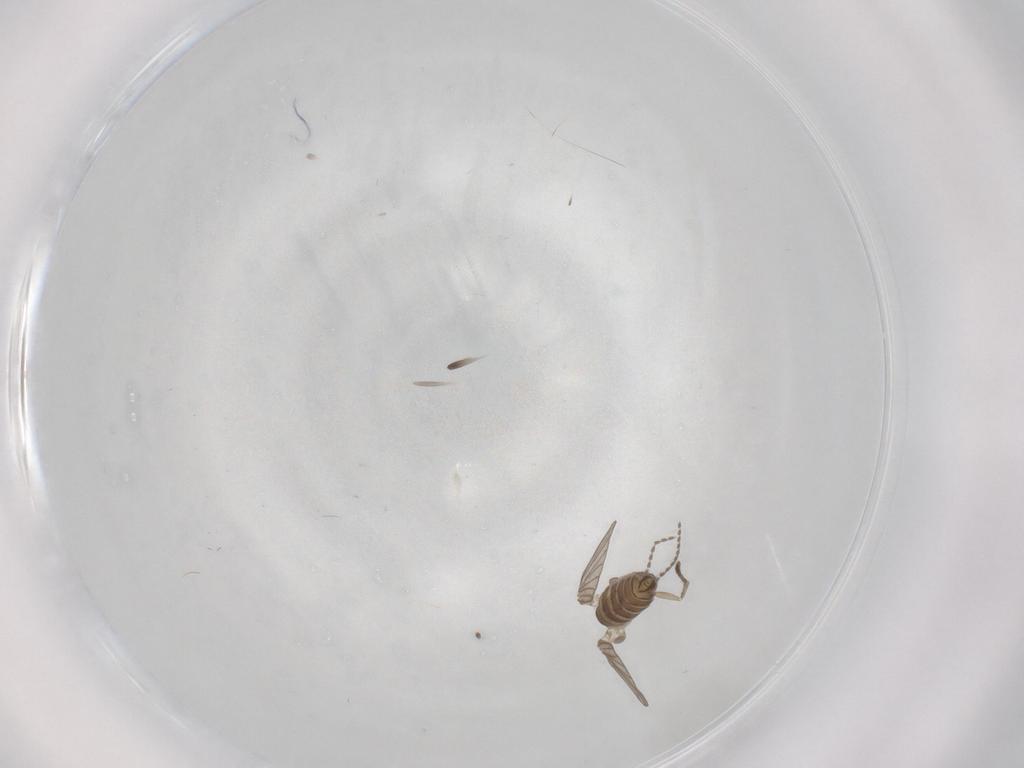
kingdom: Animalia
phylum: Arthropoda
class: Insecta
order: Diptera
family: Psychodidae
